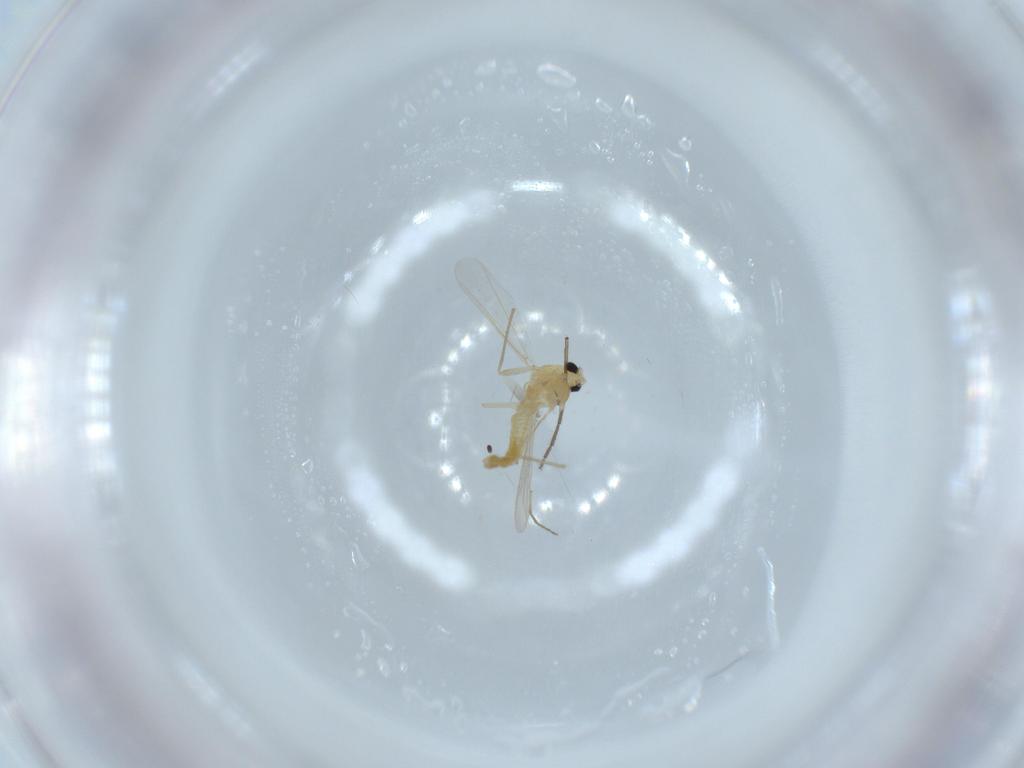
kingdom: Animalia
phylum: Arthropoda
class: Insecta
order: Diptera
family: Chironomidae
